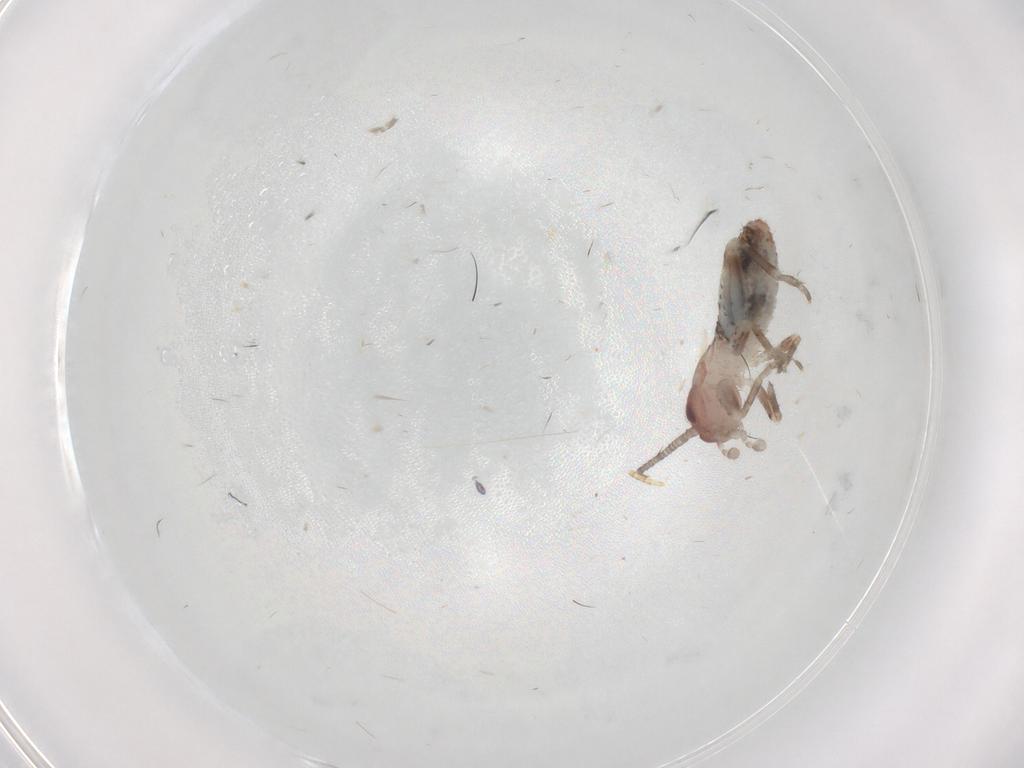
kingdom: Animalia
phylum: Arthropoda
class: Insecta
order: Orthoptera
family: Mogoplistidae
